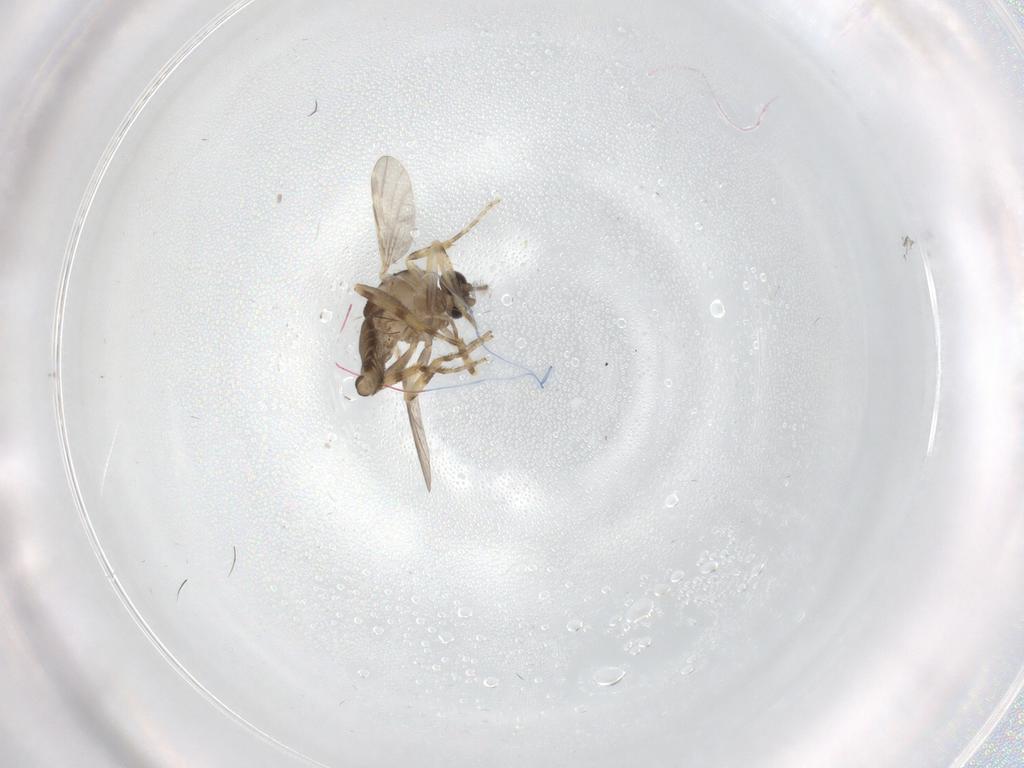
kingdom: Animalia
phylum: Arthropoda
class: Insecta
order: Diptera
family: Ceratopogonidae
